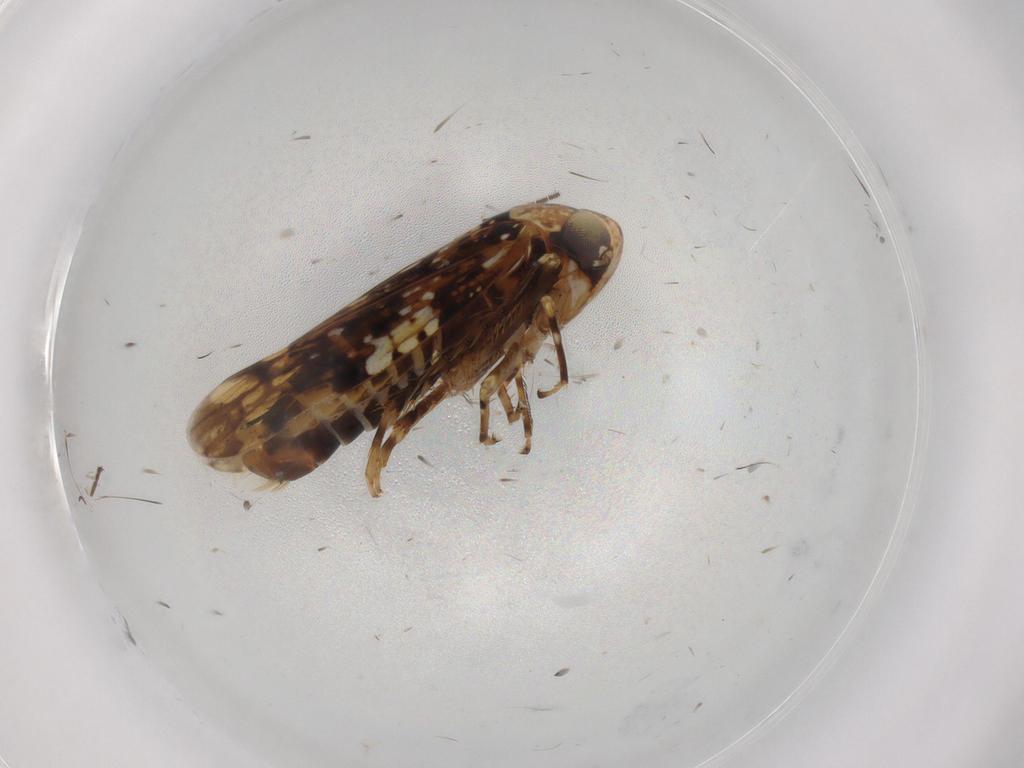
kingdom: Animalia
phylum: Arthropoda
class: Insecta
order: Hemiptera
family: Cicadellidae
